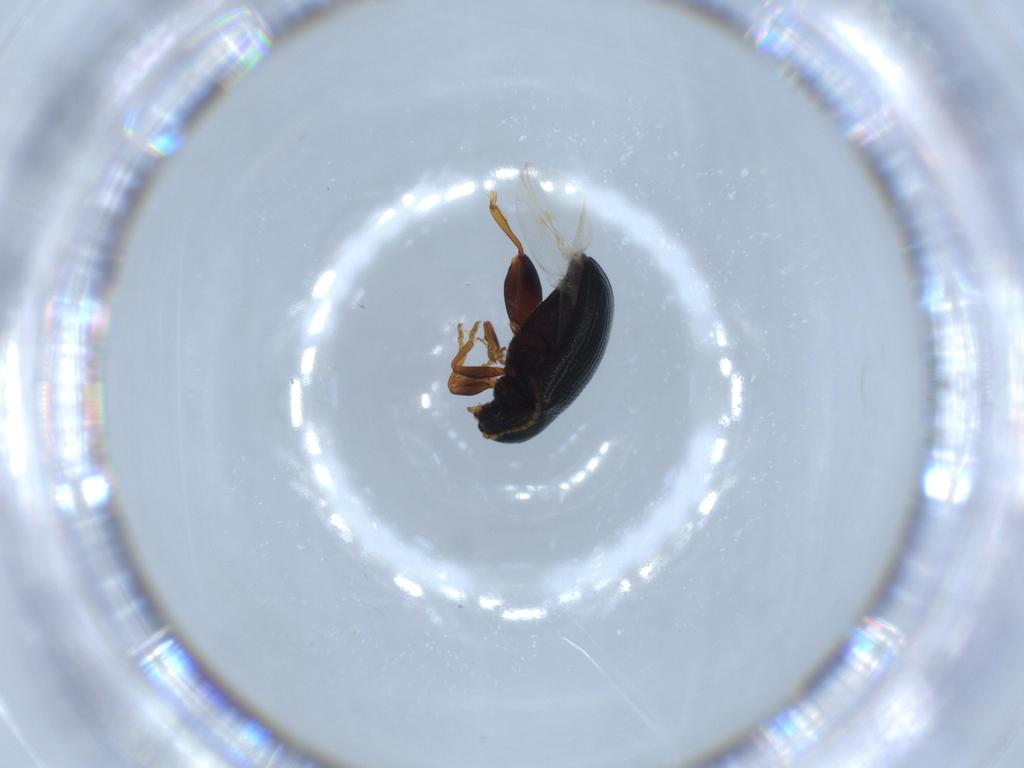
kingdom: Animalia
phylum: Arthropoda
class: Insecta
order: Coleoptera
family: Chrysomelidae
